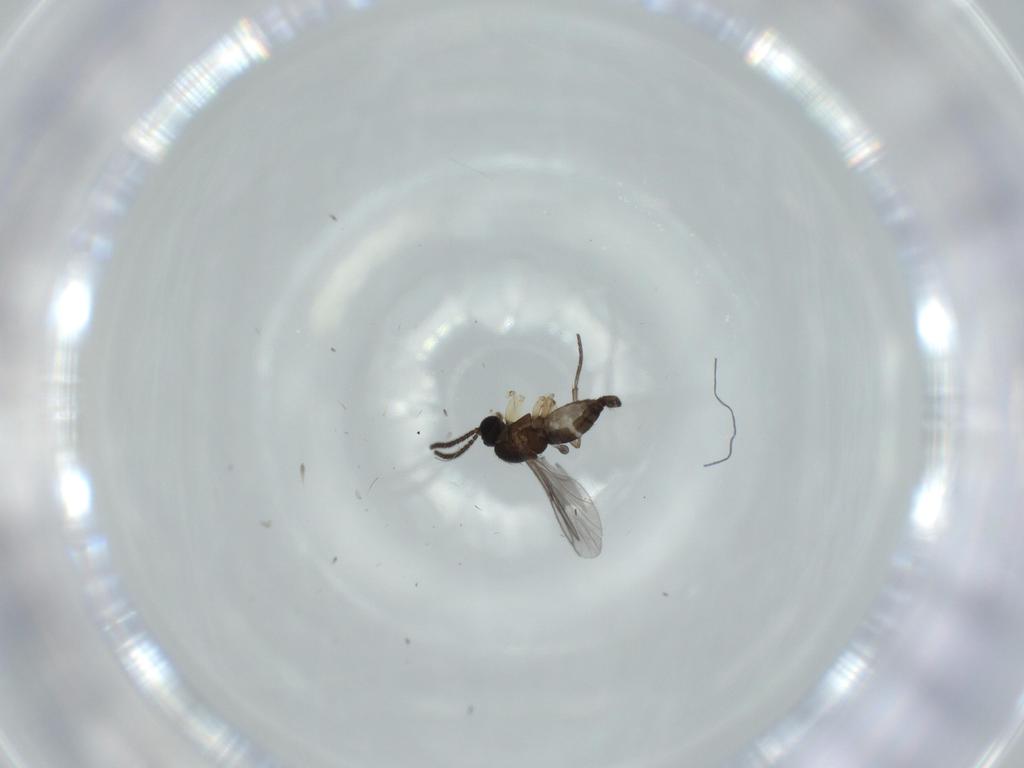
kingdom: Animalia
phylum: Arthropoda
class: Insecta
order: Diptera
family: Sciaridae
